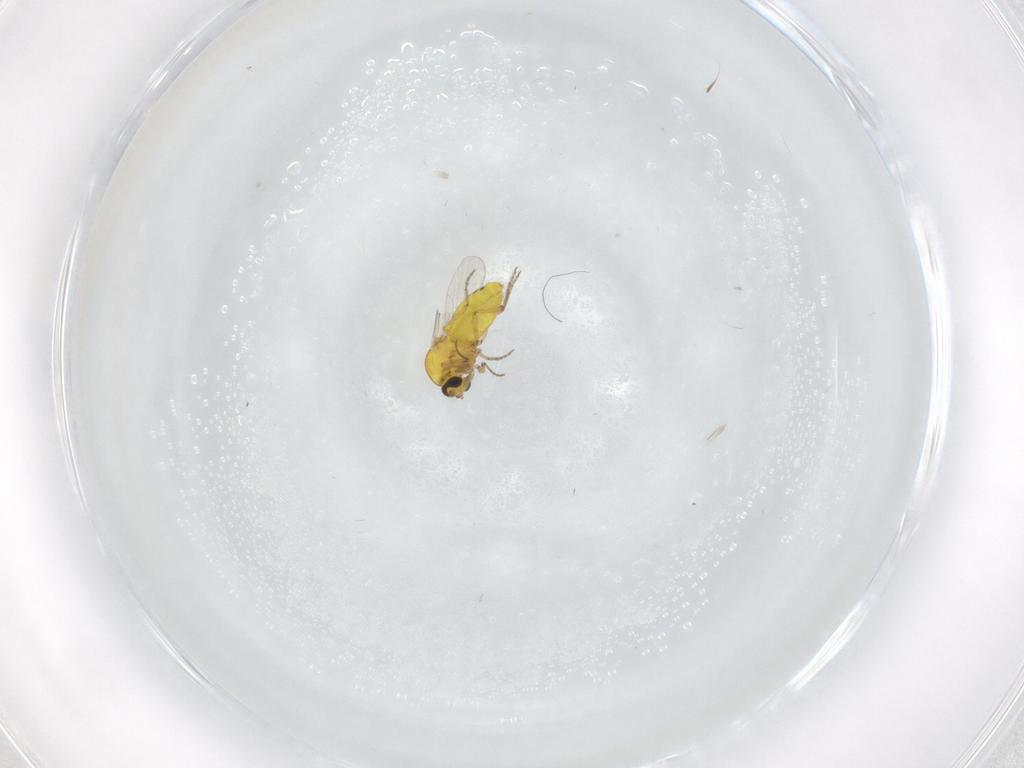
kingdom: Animalia
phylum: Arthropoda
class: Insecta
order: Diptera
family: Ceratopogonidae
